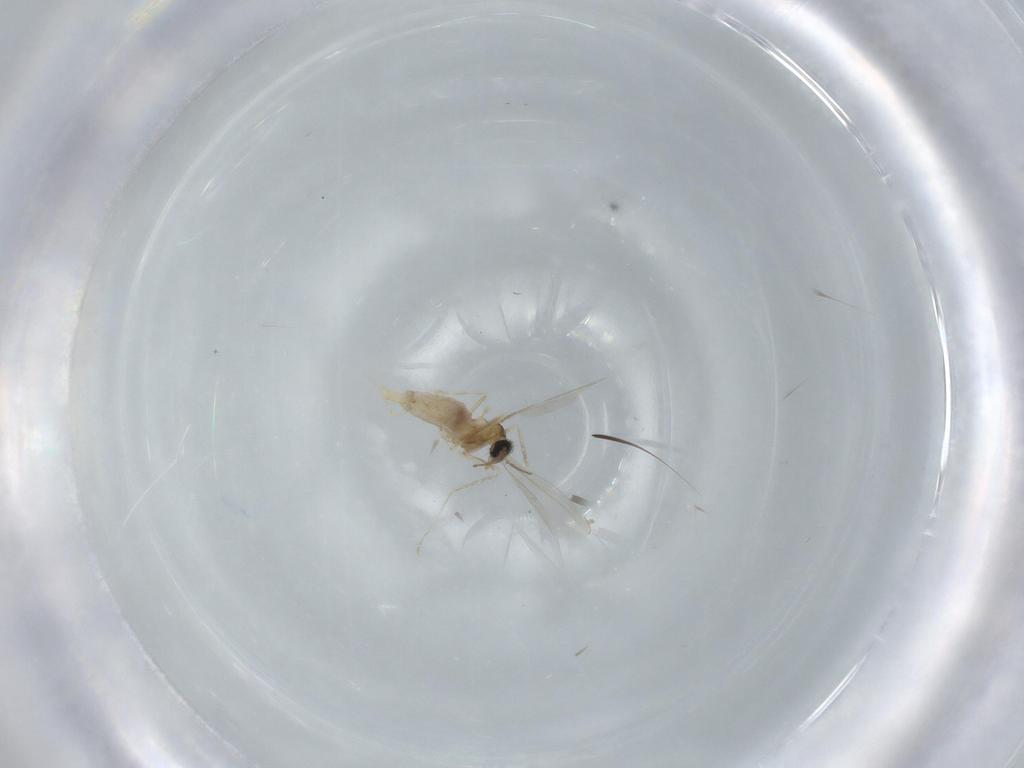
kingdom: Animalia
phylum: Arthropoda
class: Insecta
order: Diptera
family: Cecidomyiidae
